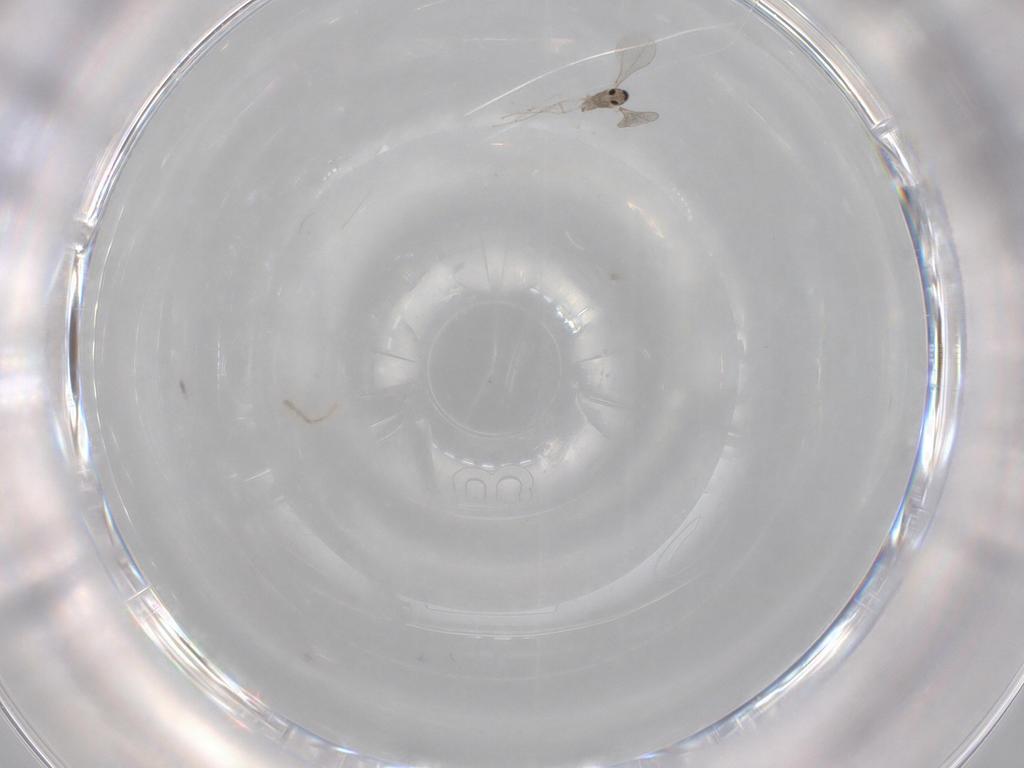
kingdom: Animalia
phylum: Arthropoda
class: Insecta
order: Diptera
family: Cecidomyiidae
